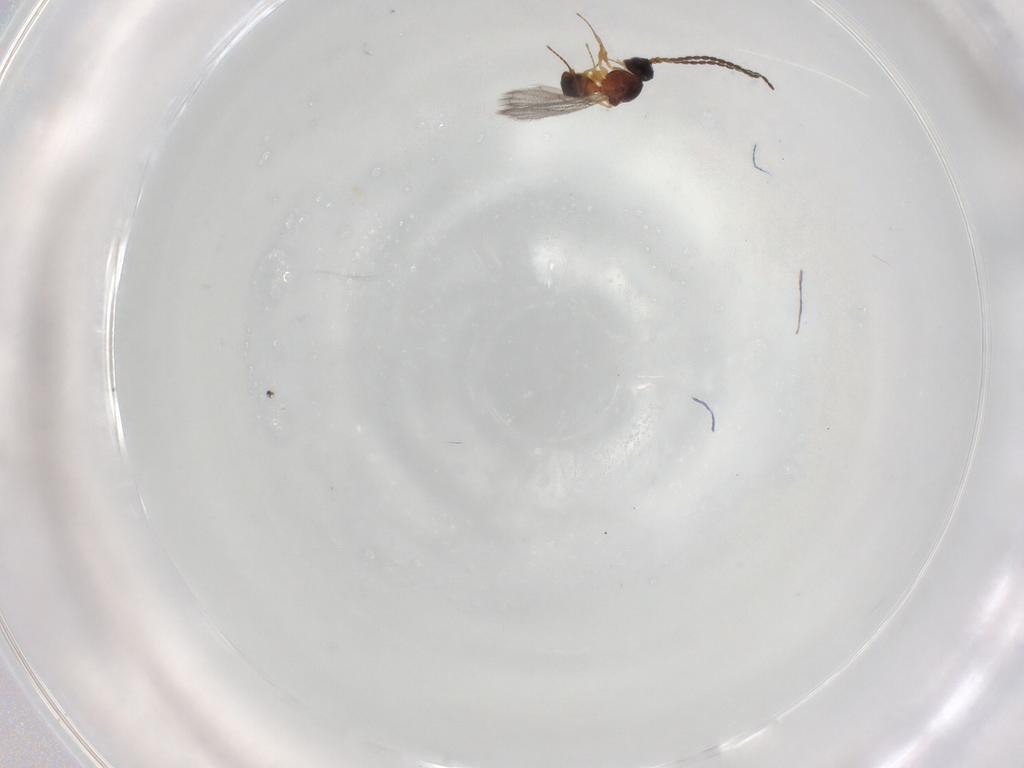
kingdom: Animalia
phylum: Arthropoda
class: Insecta
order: Hymenoptera
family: Figitidae
